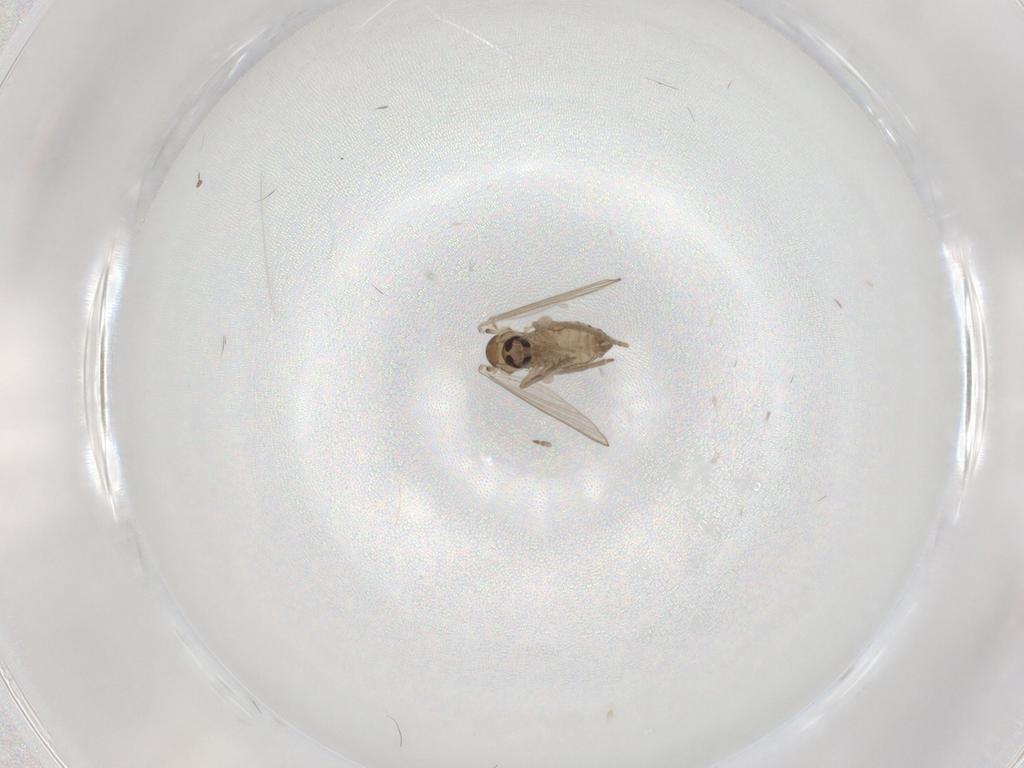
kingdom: Animalia
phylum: Arthropoda
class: Insecta
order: Diptera
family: Psychodidae
